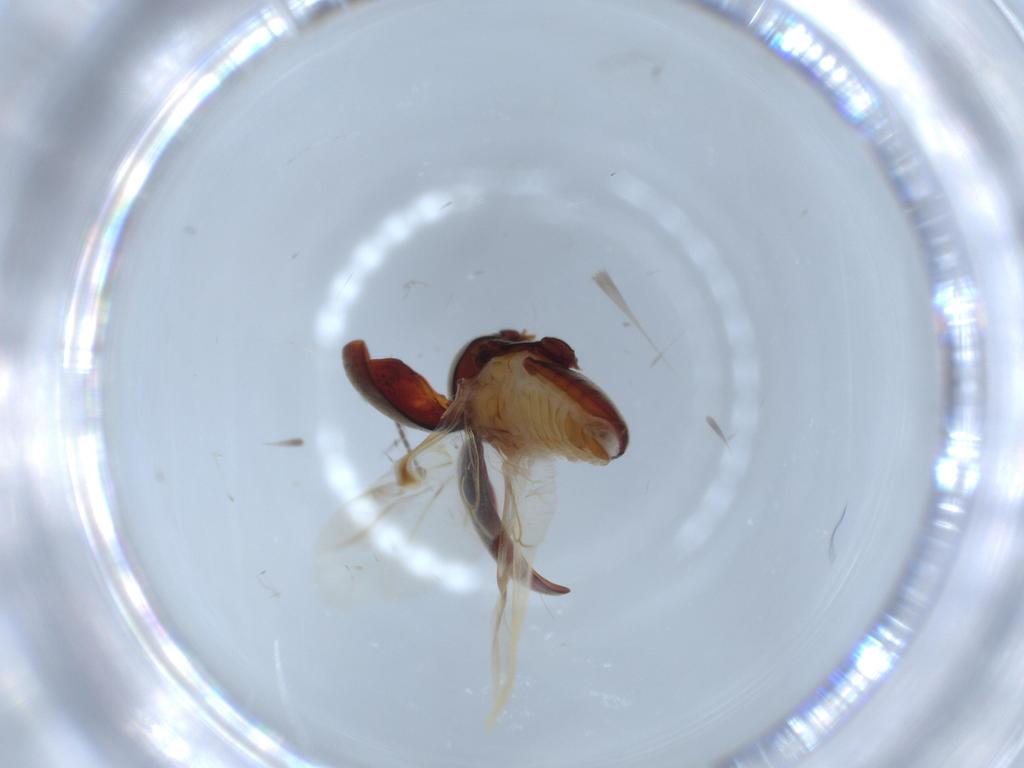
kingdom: Animalia
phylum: Arthropoda
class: Insecta
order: Coleoptera
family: Ptinidae
